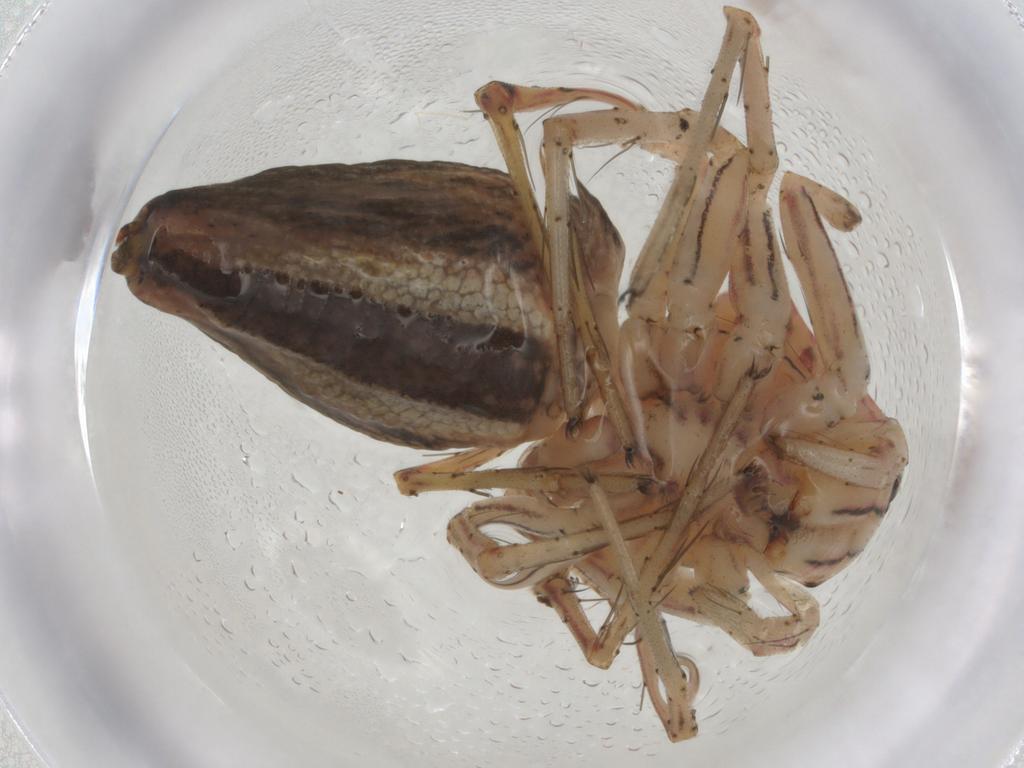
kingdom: Animalia
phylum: Arthropoda
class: Arachnida
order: Araneae
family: Oxyopidae
